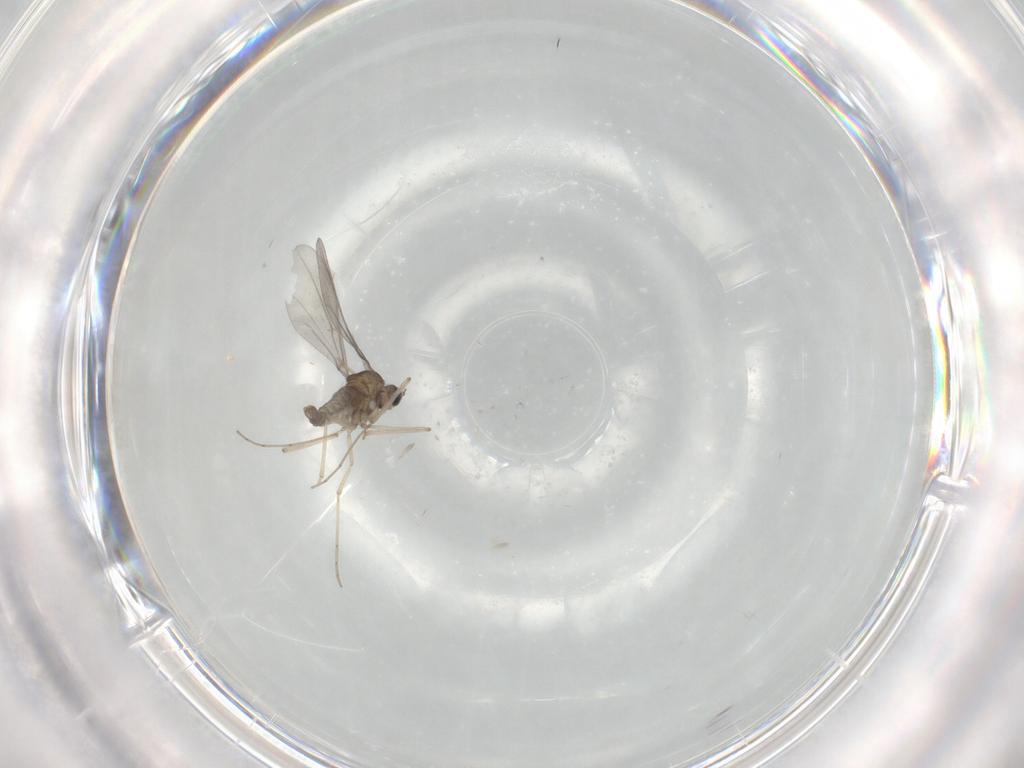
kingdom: Animalia
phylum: Arthropoda
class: Insecta
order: Diptera
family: Cecidomyiidae
